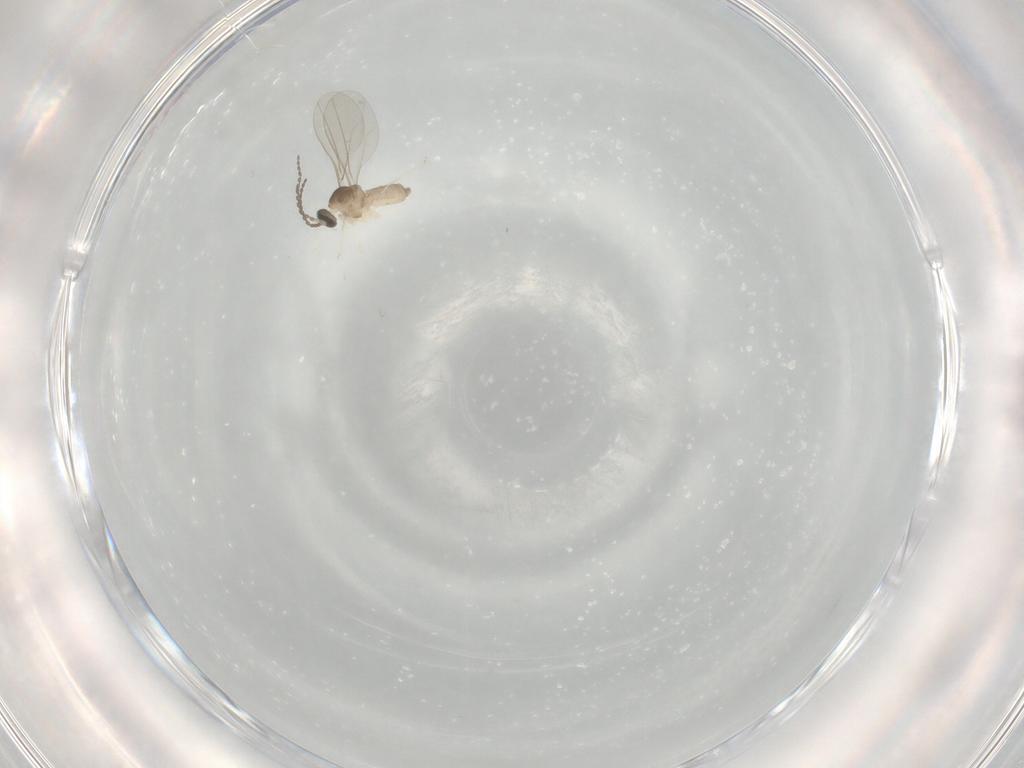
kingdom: Animalia
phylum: Arthropoda
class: Insecta
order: Diptera
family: Cecidomyiidae
